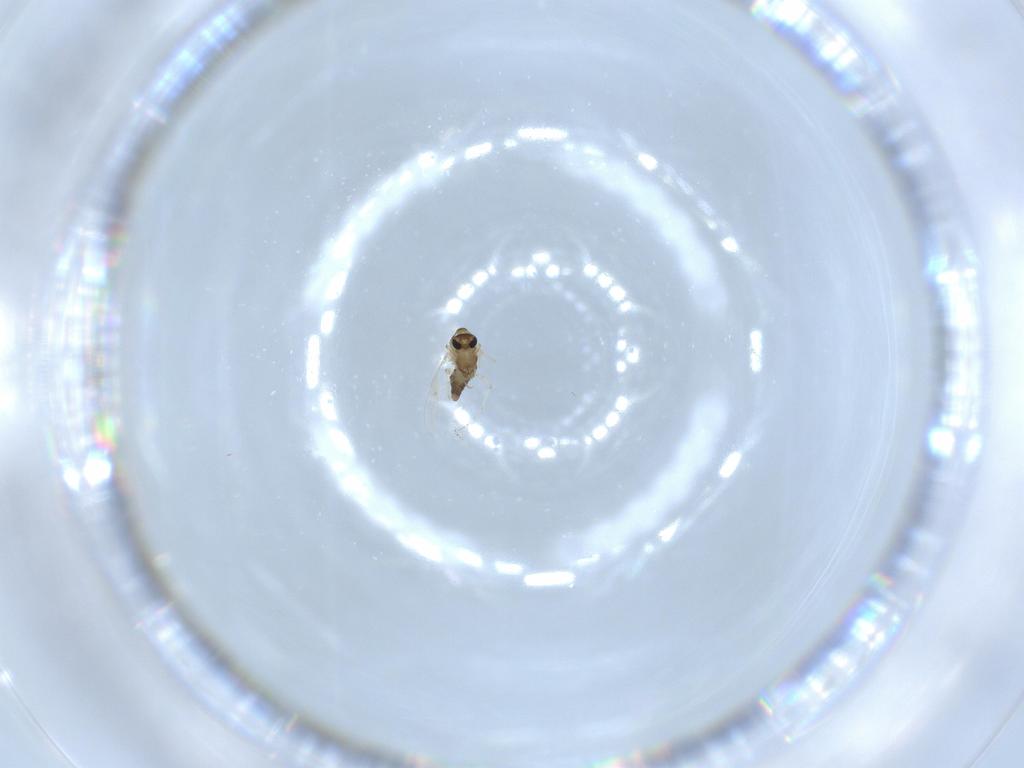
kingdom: Animalia
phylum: Arthropoda
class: Insecta
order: Diptera
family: Chironomidae
